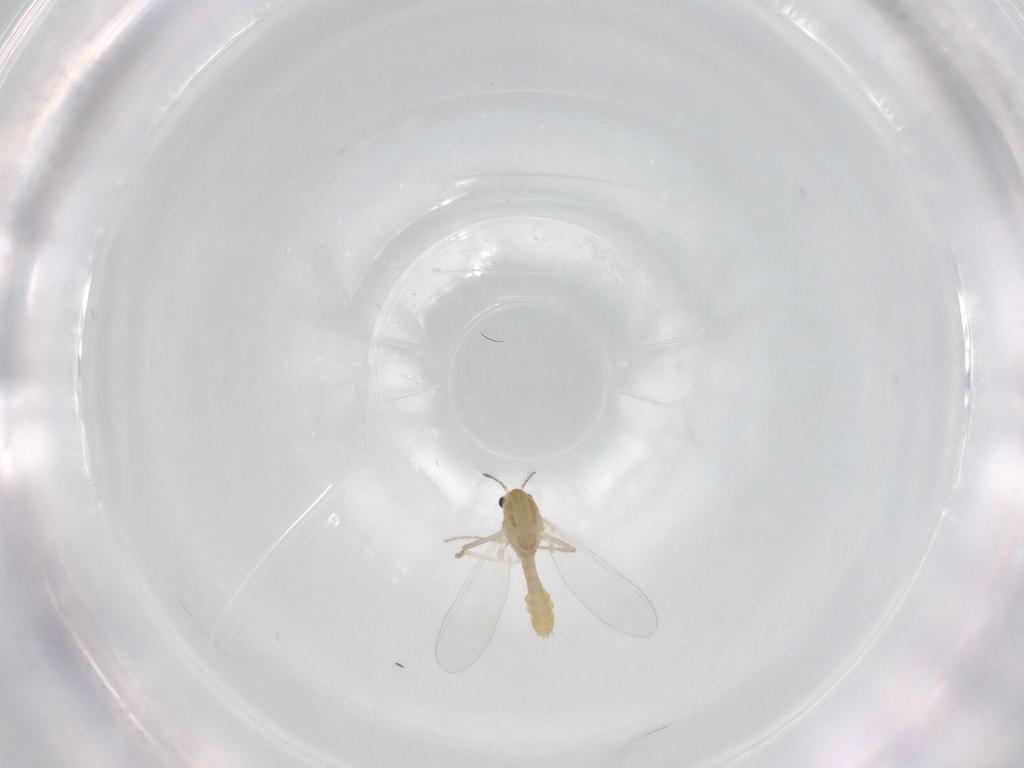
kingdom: Animalia
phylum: Arthropoda
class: Insecta
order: Diptera
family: Chironomidae
